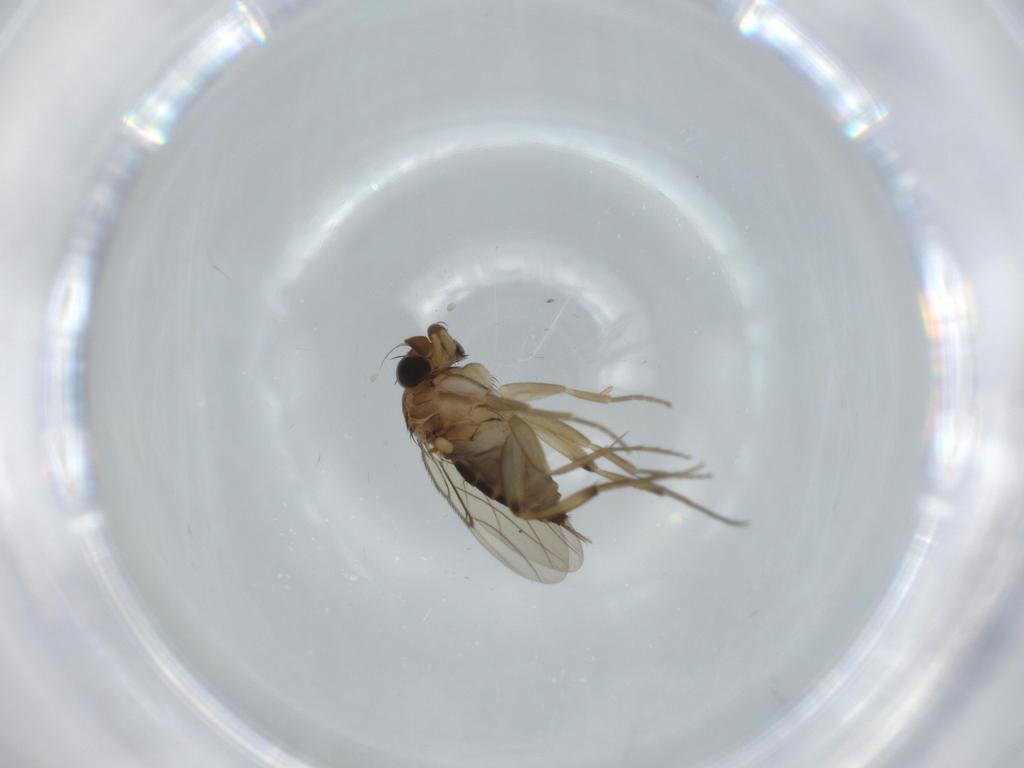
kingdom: Animalia
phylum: Arthropoda
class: Insecta
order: Diptera
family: Phoridae
